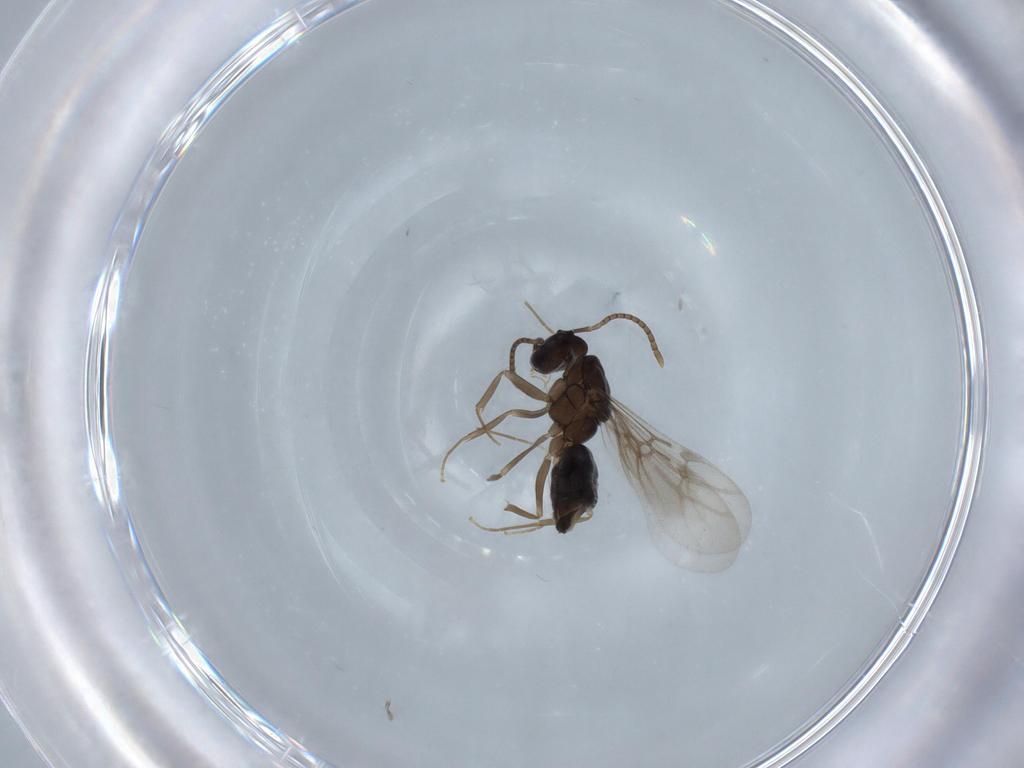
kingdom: Animalia
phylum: Arthropoda
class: Insecta
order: Hymenoptera
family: Formicidae
